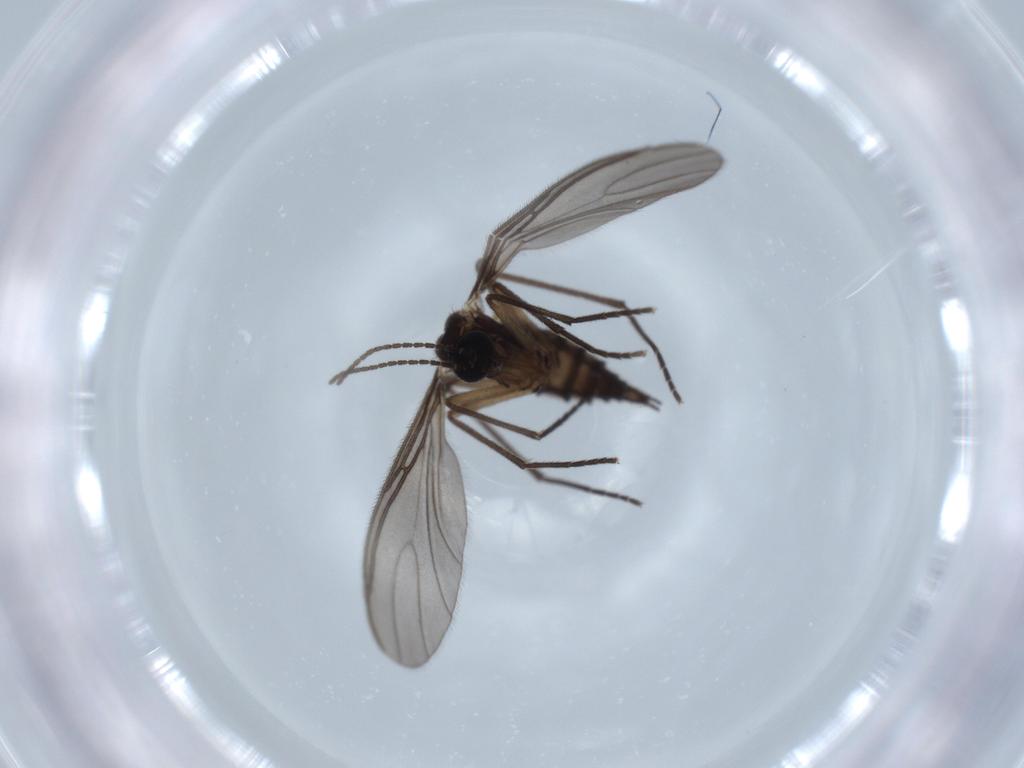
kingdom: Animalia
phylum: Arthropoda
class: Insecta
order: Diptera
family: Sciaridae
